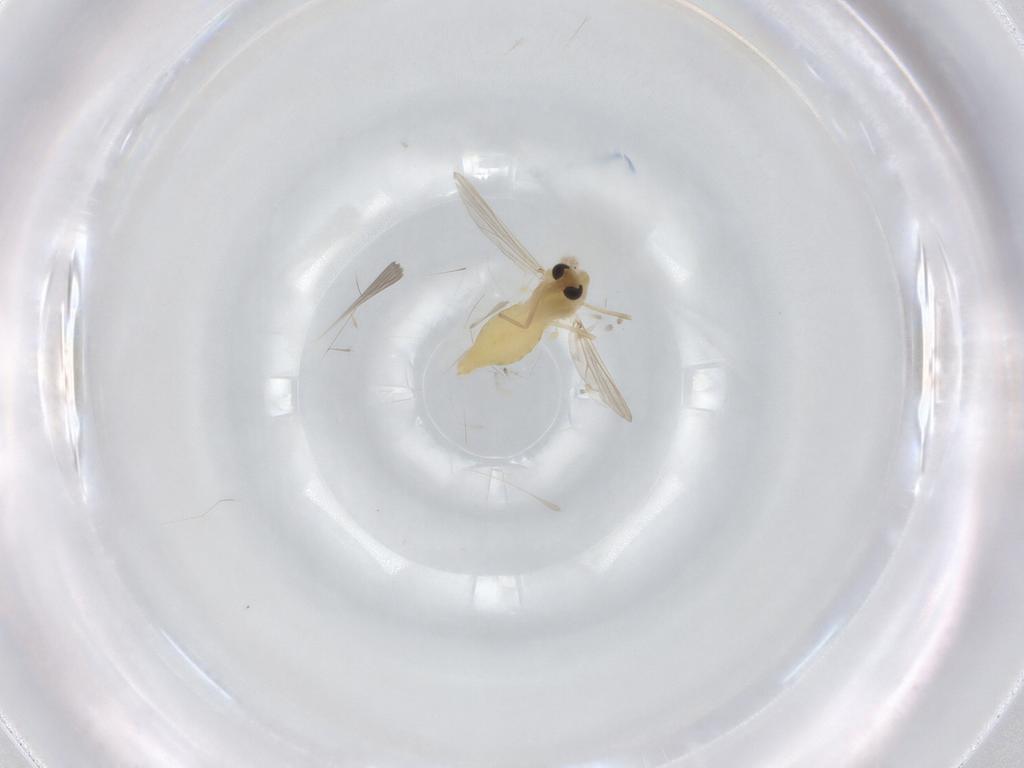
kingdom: Animalia
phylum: Arthropoda
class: Insecta
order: Diptera
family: Chironomidae
